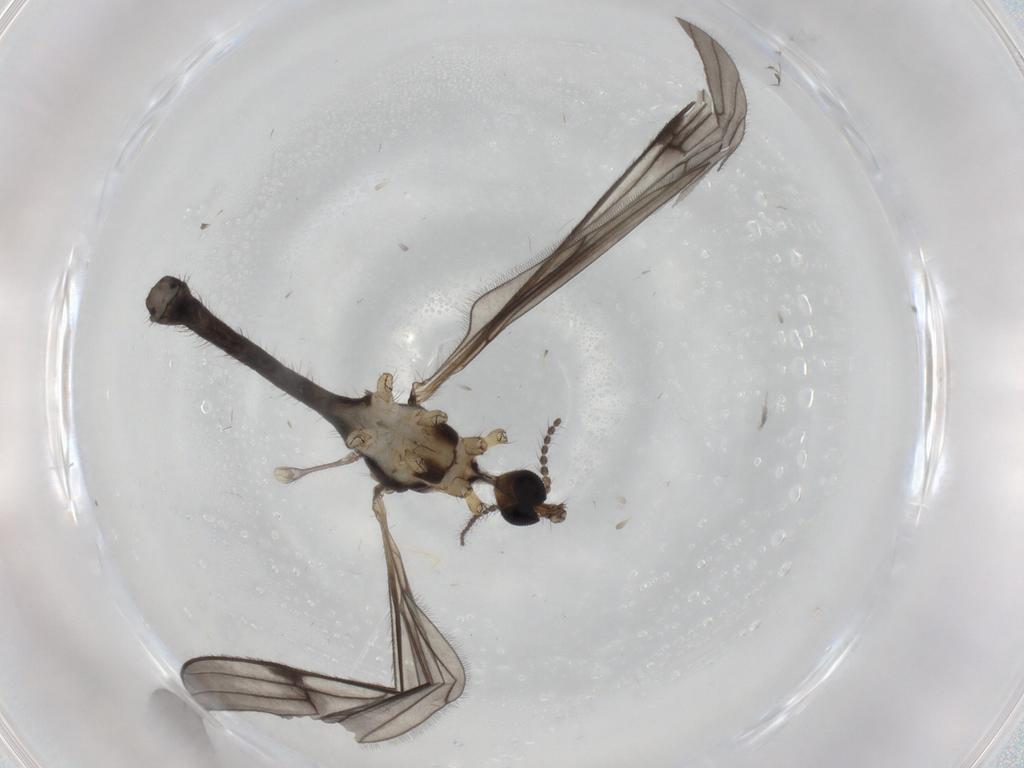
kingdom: Animalia
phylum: Arthropoda
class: Insecta
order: Diptera
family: Limoniidae
